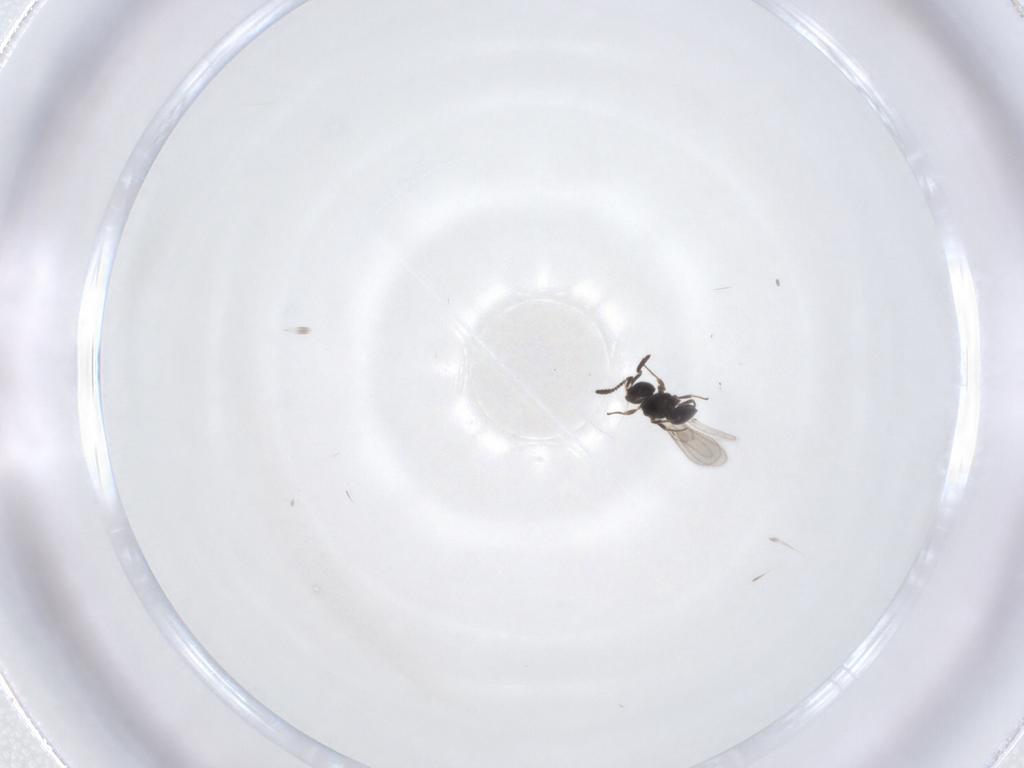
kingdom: Animalia
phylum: Arthropoda
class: Insecta
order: Hymenoptera
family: Scelionidae
